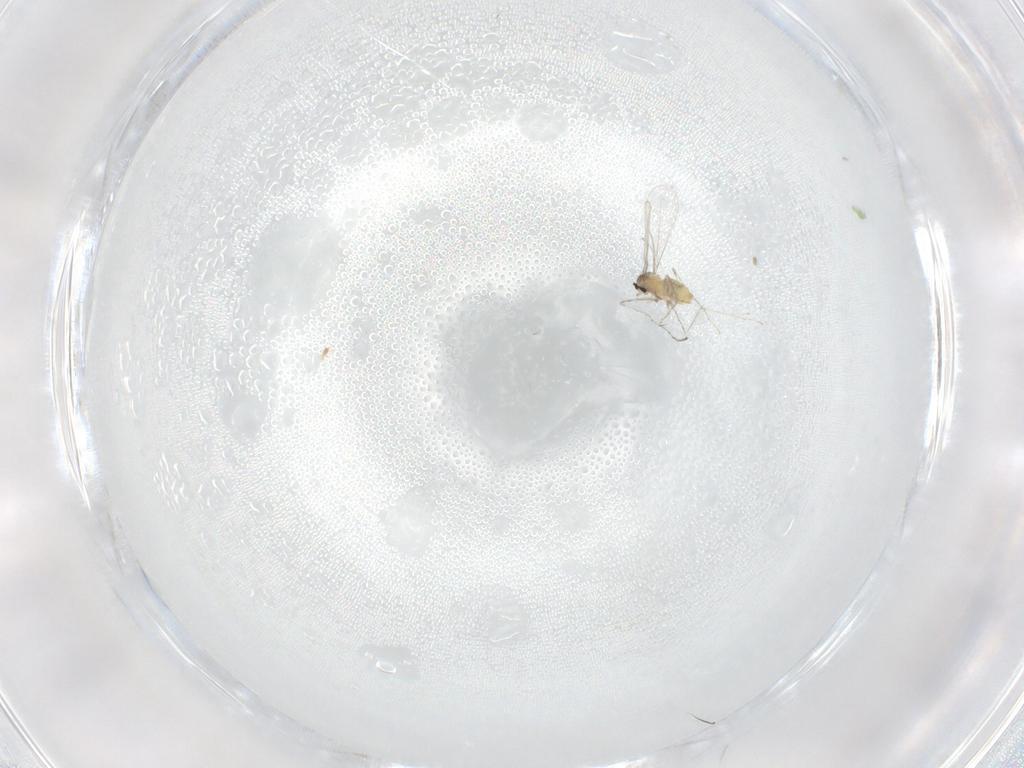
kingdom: Animalia
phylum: Arthropoda
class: Insecta
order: Diptera
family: Cecidomyiidae
